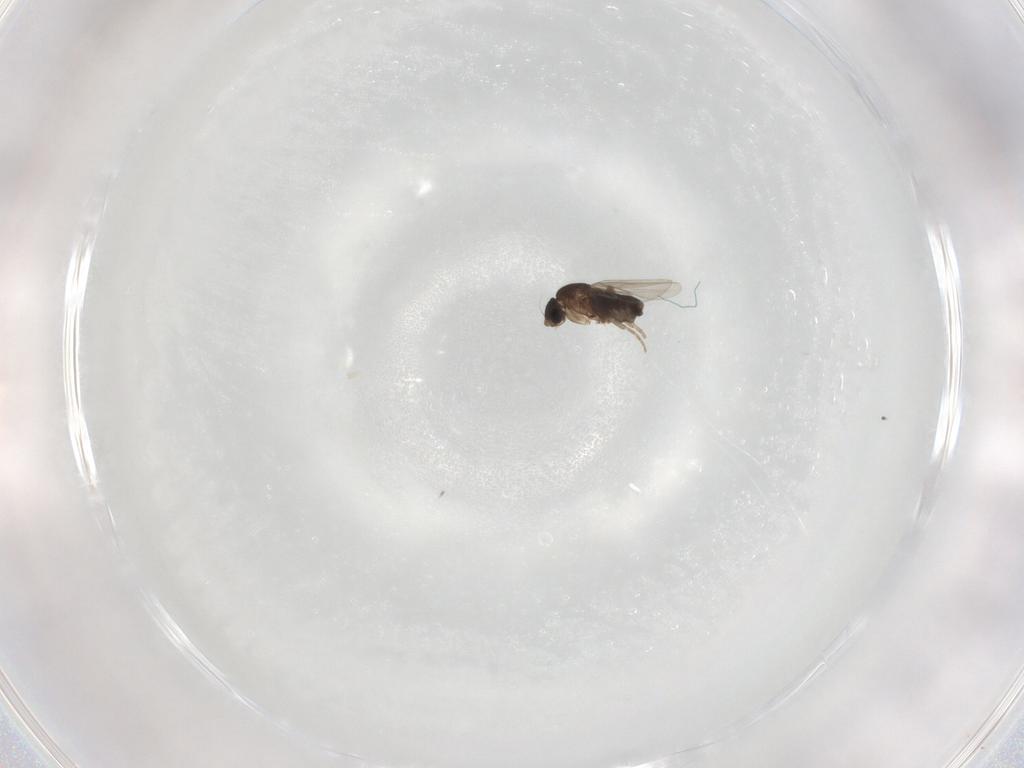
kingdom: Animalia
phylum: Arthropoda
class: Insecta
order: Diptera
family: Phoridae
